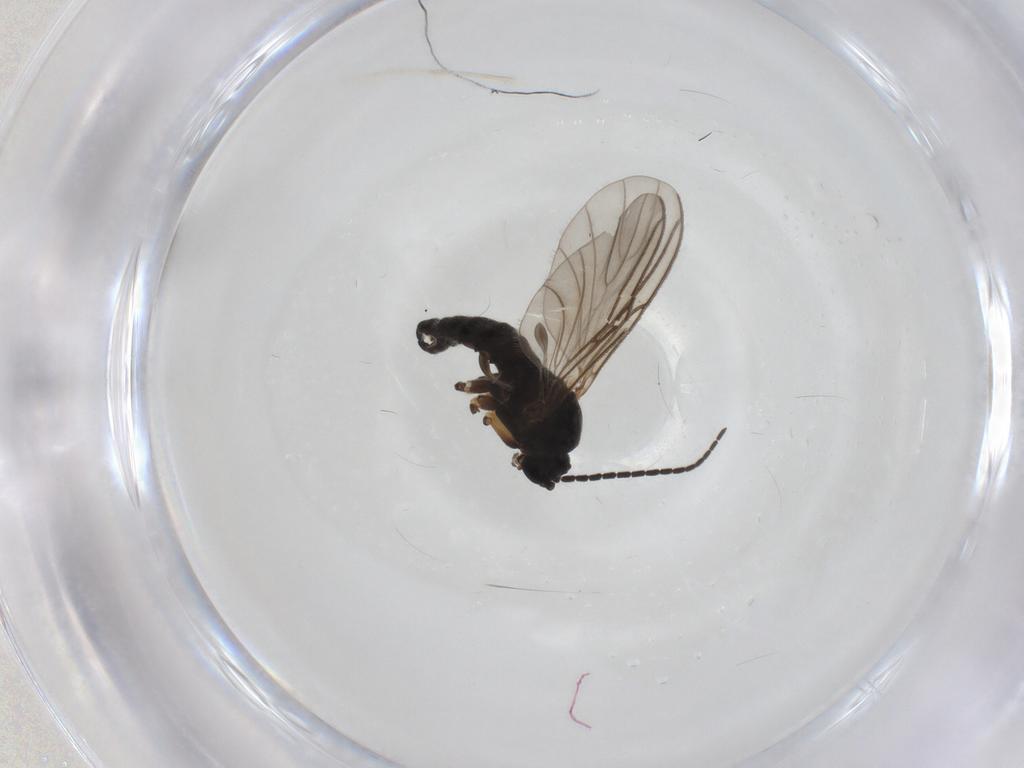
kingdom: Animalia
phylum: Arthropoda
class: Insecta
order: Diptera
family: Sciaridae
